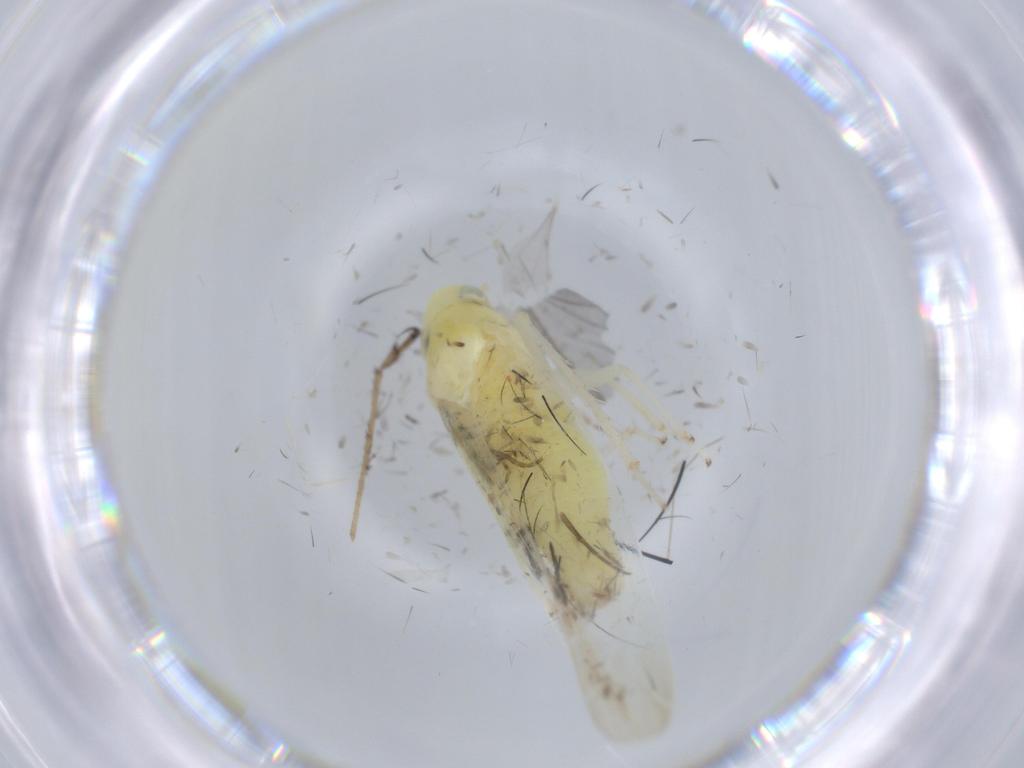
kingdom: Animalia
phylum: Arthropoda
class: Insecta
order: Hemiptera
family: Cicadellidae
